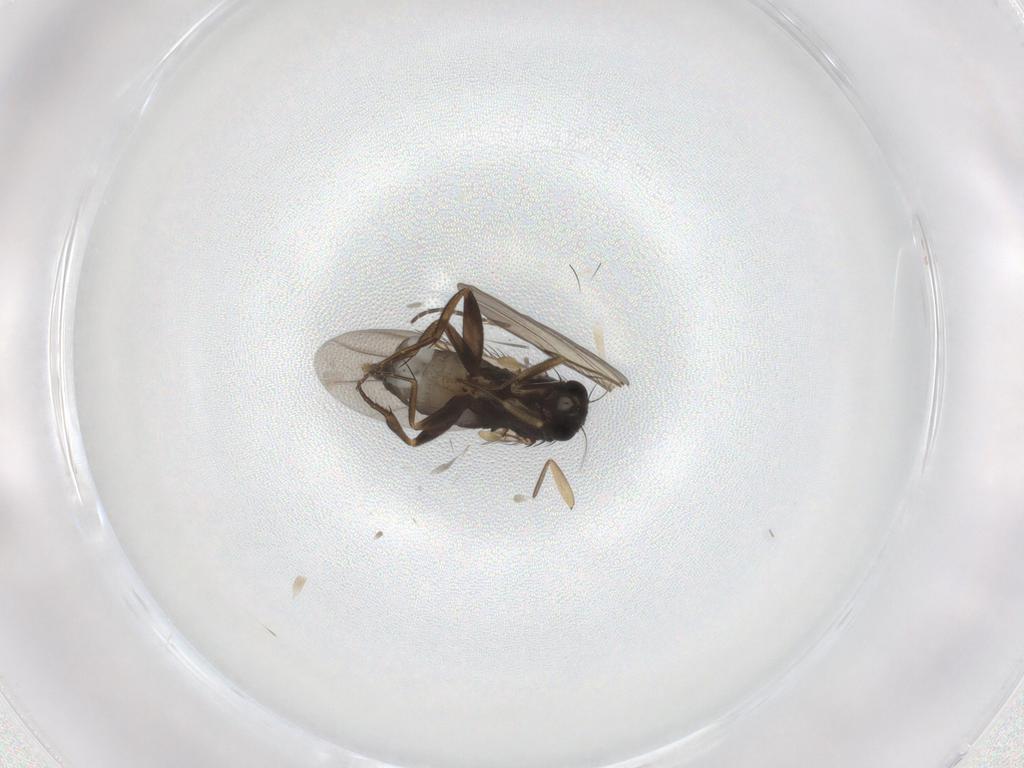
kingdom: Animalia
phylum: Arthropoda
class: Insecta
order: Diptera
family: Phoridae
